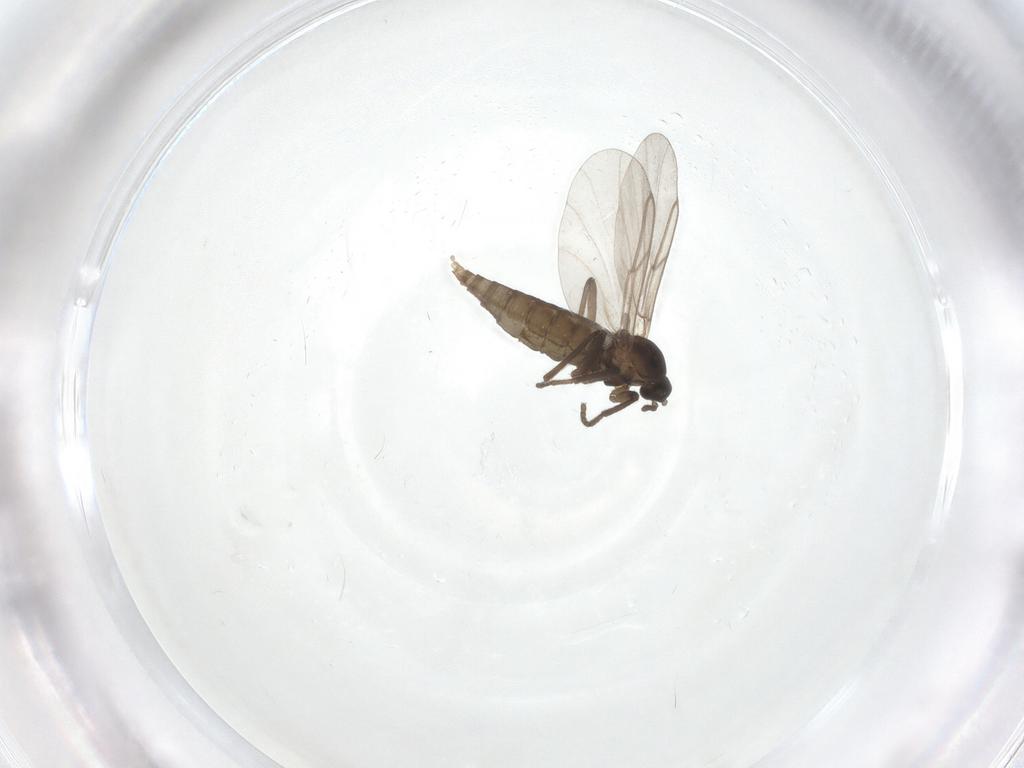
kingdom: Animalia
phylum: Arthropoda
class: Insecta
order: Diptera
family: Cecidomyiidae
